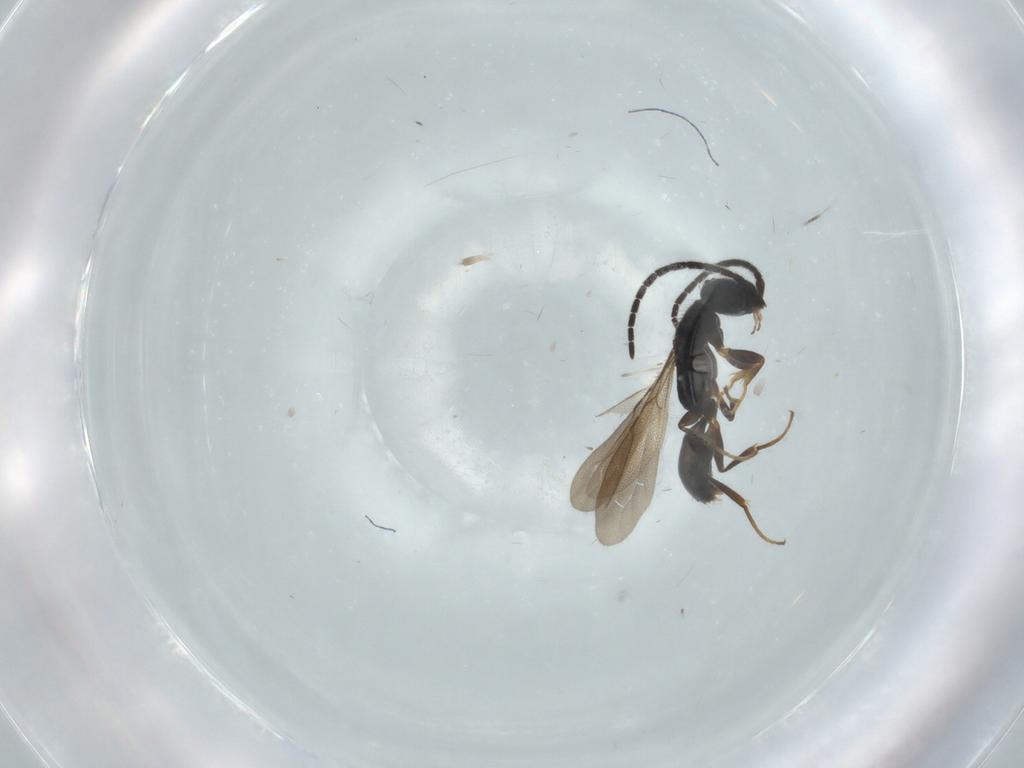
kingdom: Animalia
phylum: Arthropoda
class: Insecta
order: Hymenoptera
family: Bethylidae
